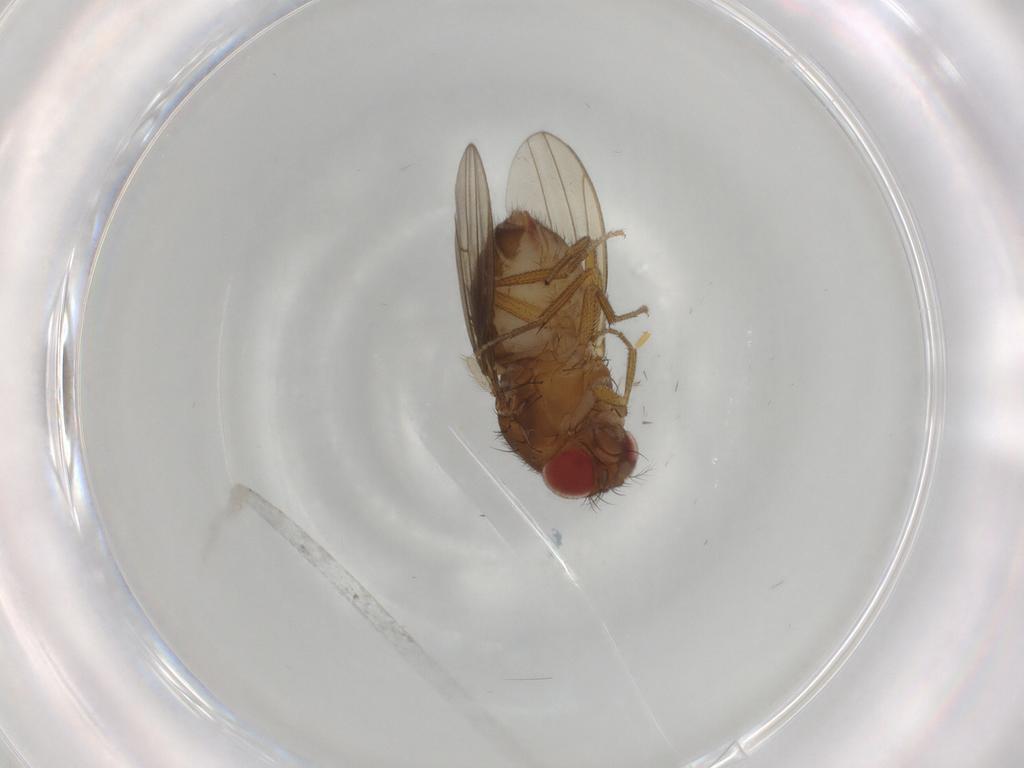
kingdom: Animalia
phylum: Arthropoda
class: Insecta
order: Diptera
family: Drosophilidae
